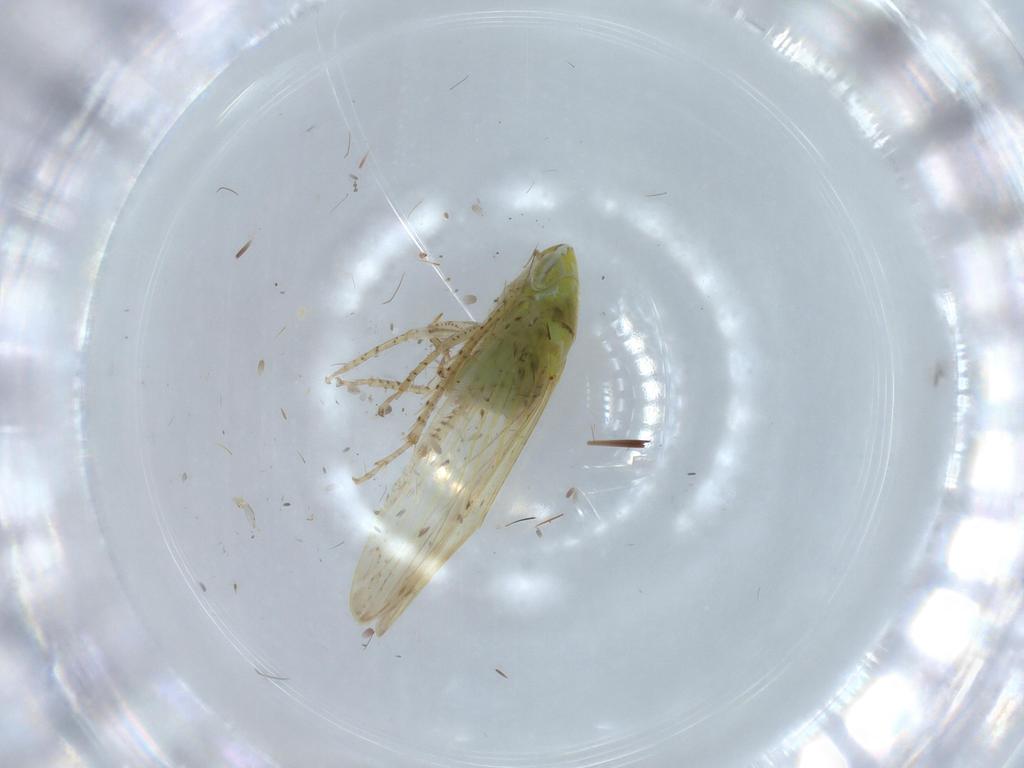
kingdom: Animalia
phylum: Arthropoda
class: Insecta
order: Hemiptera
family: Cicadellidae
